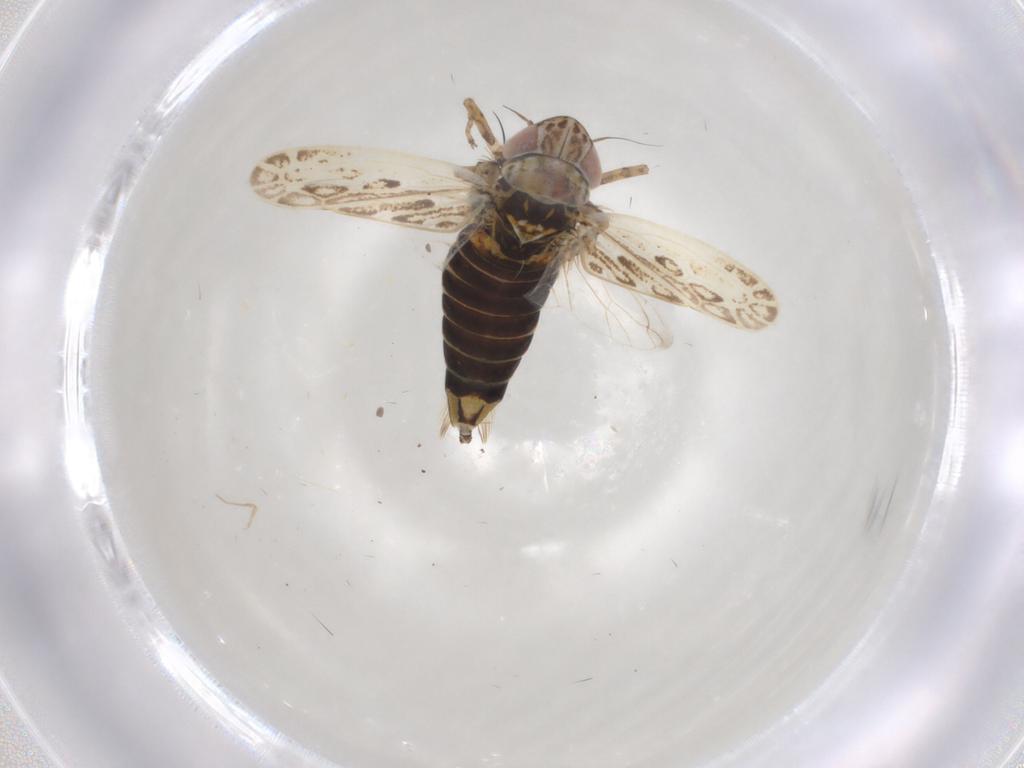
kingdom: Animalia
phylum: Arthropoda
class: Insecta
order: Hemiptera
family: Cicadellidae
